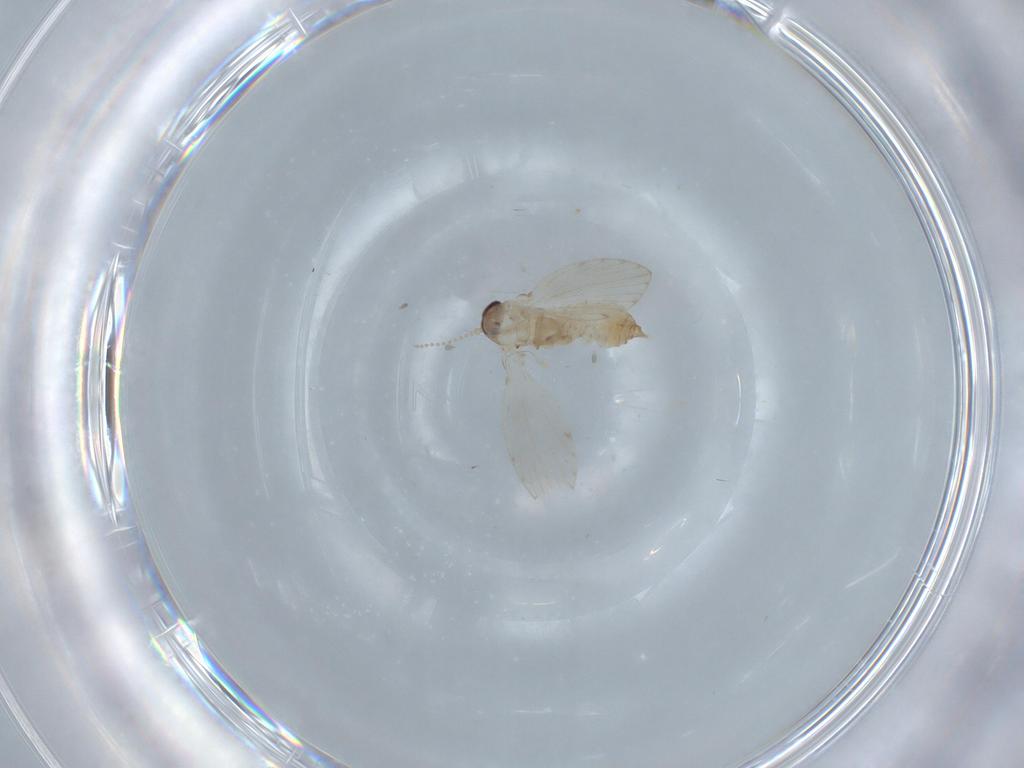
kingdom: Animalia
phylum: Arthropoda
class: Insecta
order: Diptera
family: Psychodidae
